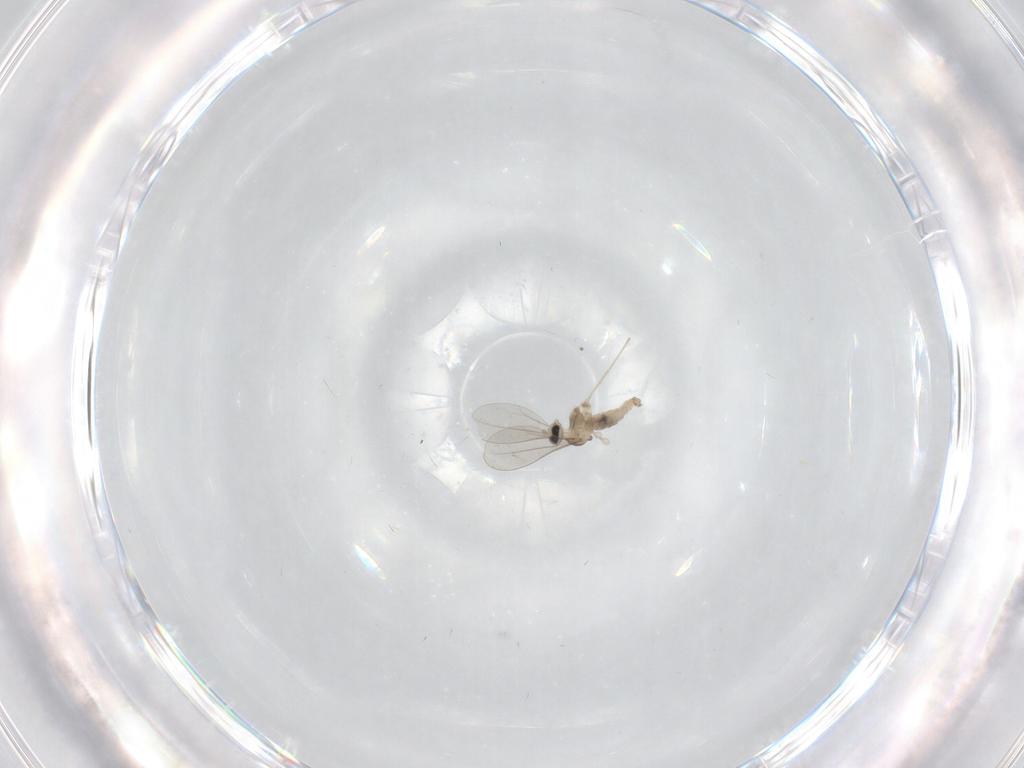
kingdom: Animalia
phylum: Arthropoda
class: Insecta
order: Diptera
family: Cecidomyiidae
